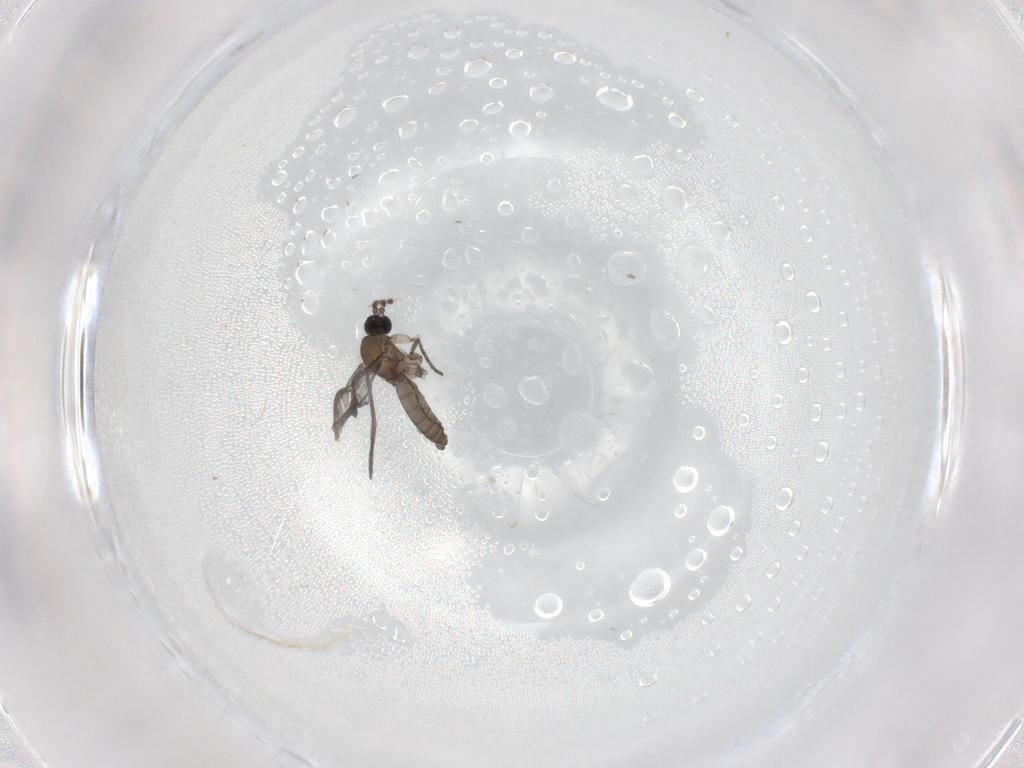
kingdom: Animalia
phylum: Arthropoda
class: Insecta
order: Diptera
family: Chironomidae
